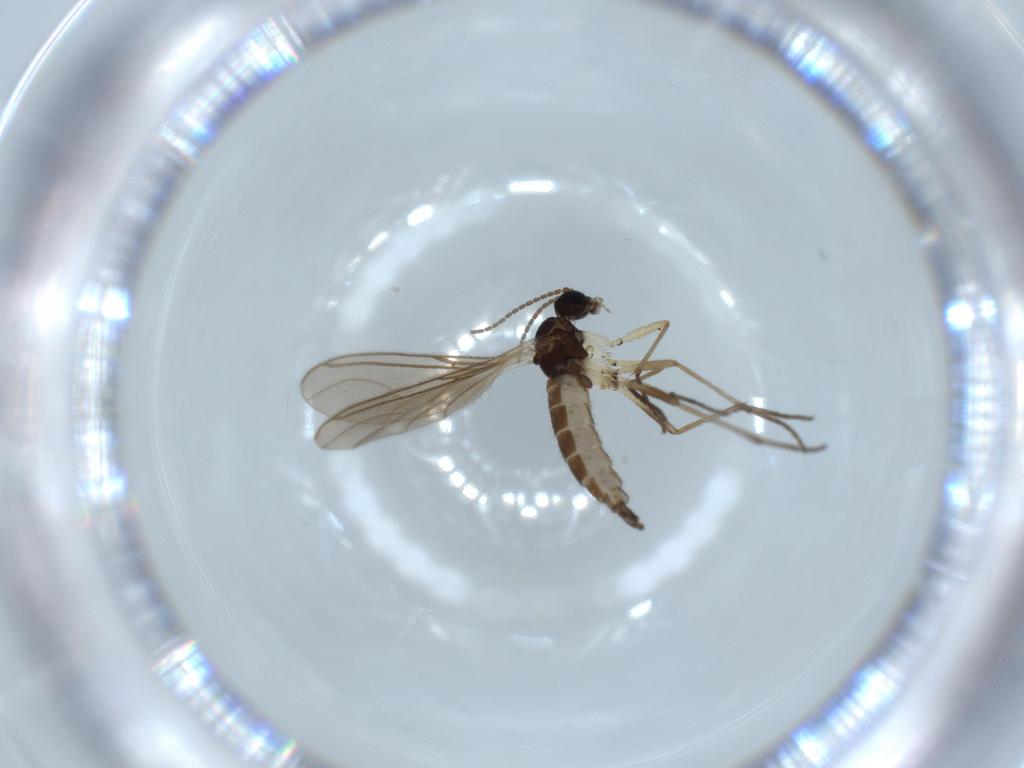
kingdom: Animalia
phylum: Arthropoda
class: Insecta
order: Diptera
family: Sciaridae
